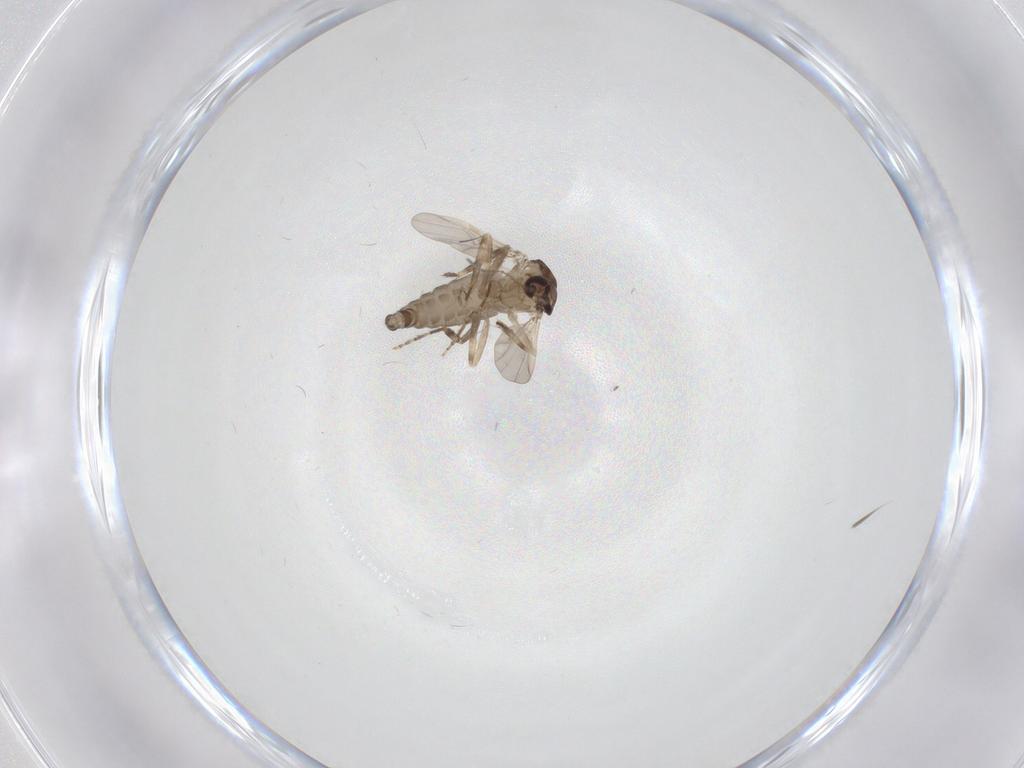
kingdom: Animalia
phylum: Arthropoda
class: Insecta
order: Diptera
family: Ceratopogonidae
